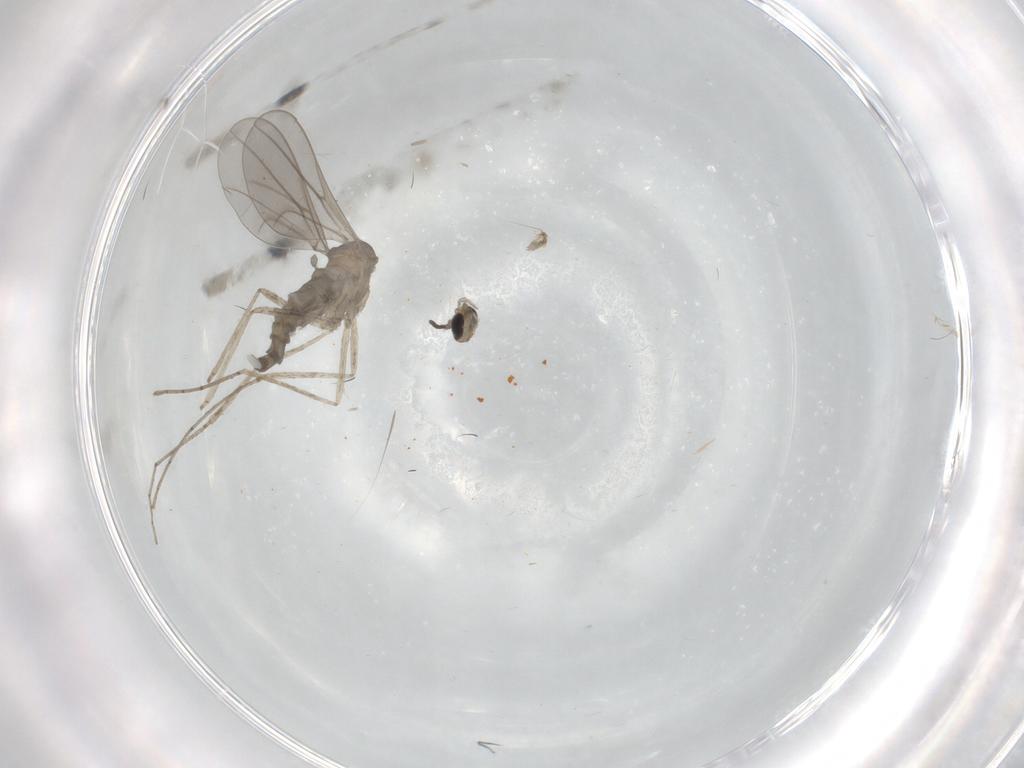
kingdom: Animalia
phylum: Arthropoda
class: Insecta
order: Diptera
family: Cecidomyiidae
